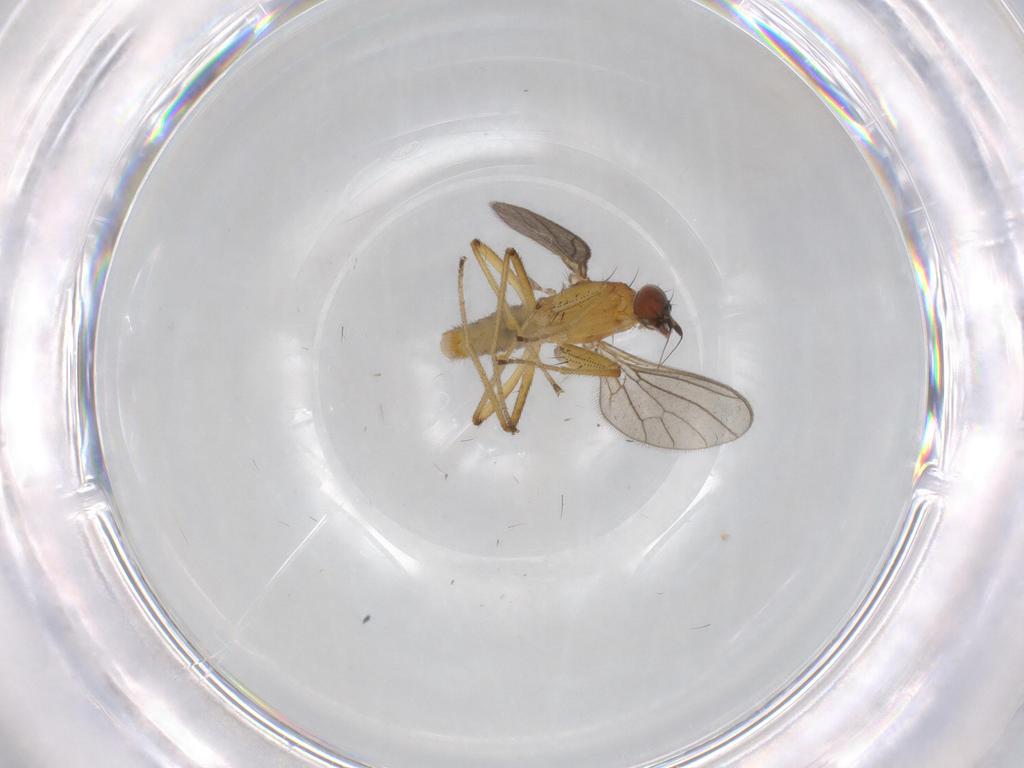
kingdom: Animalia
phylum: Arthropoda
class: Insecta
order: Diptera
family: Empididae
